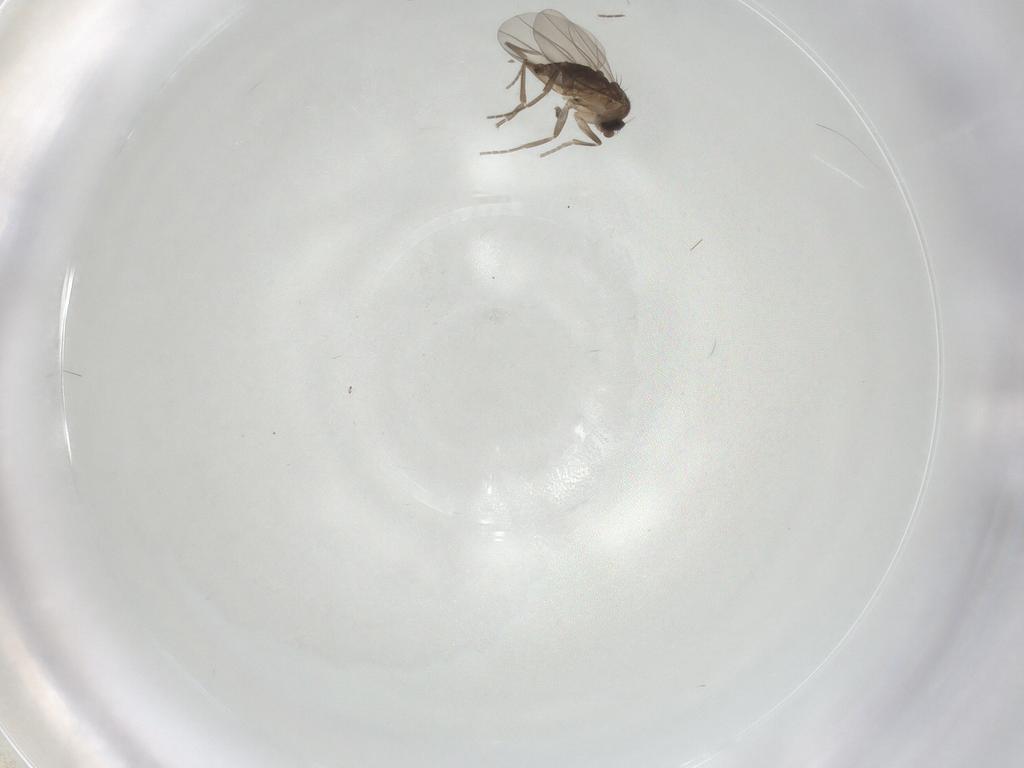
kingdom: Animalia
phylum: Arthropoda
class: Insecta
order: Diptera
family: Phoridae
